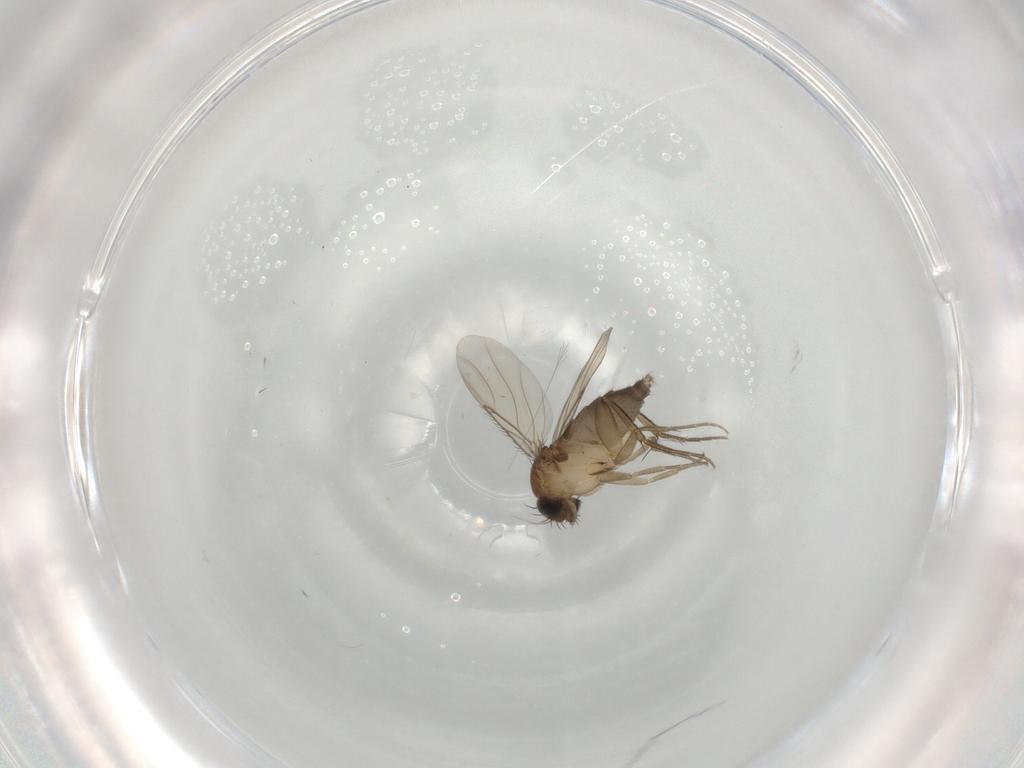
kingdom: Animalia
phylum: Arthropoda
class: Insecta
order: Diptera
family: Phoridae
